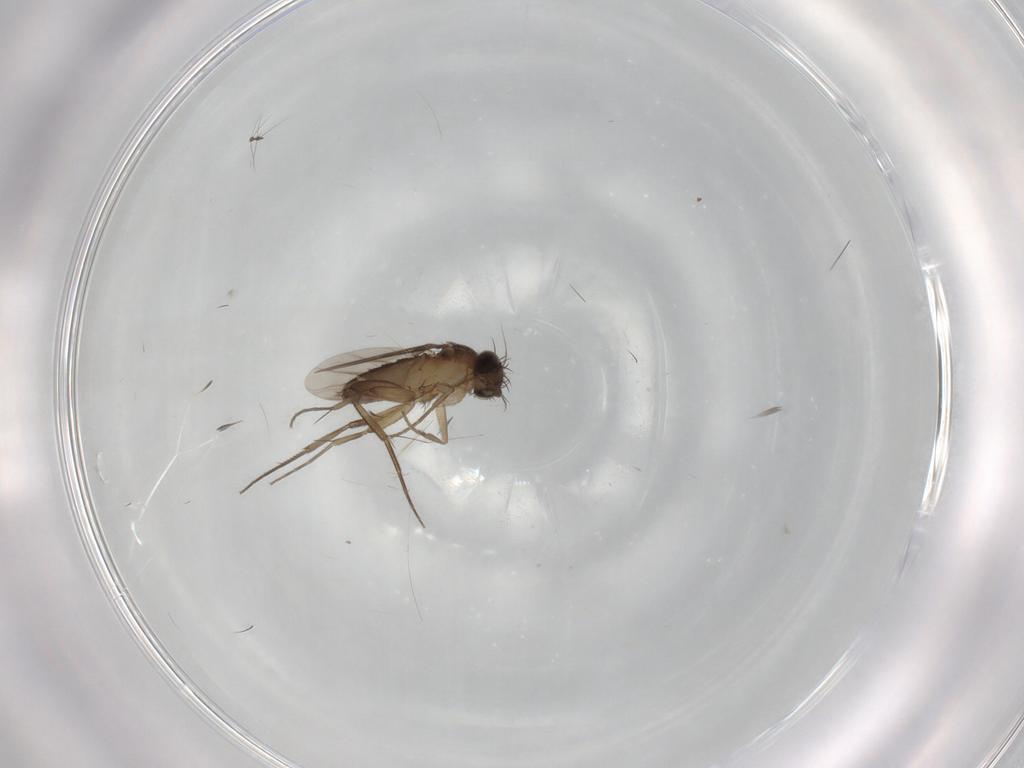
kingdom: Animalia
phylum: Arthropoda
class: Insecta
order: Diptera
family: Phoridae
